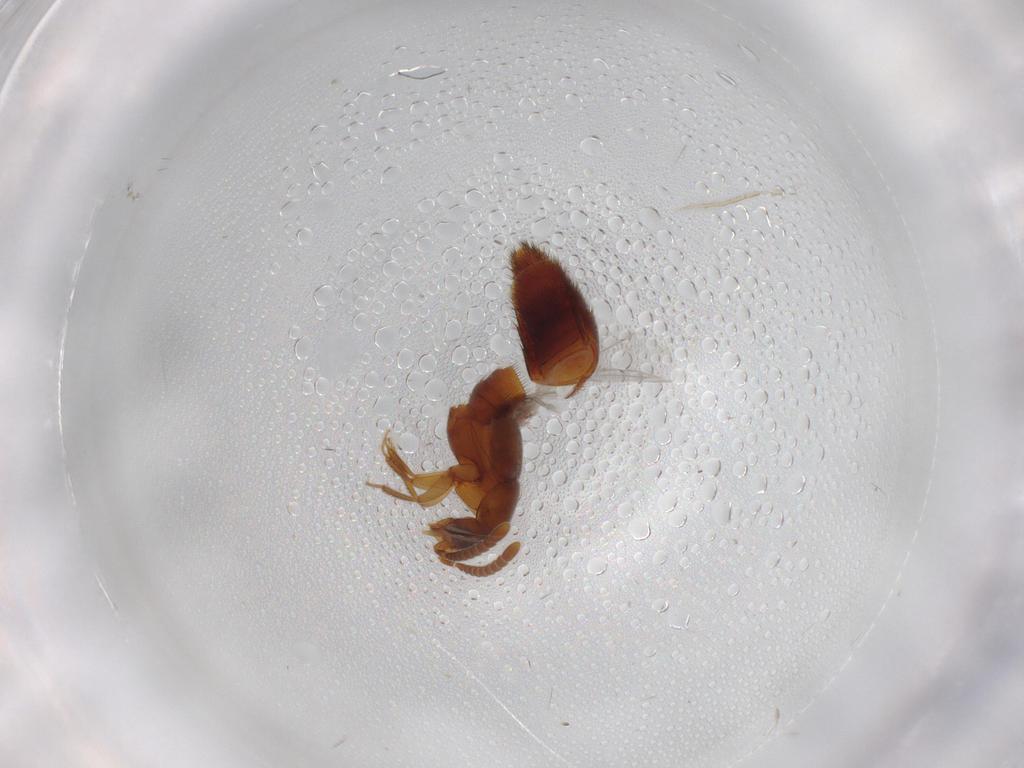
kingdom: Animalia
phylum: Arthropoda
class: Insecta
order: Coleoptera
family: Staphylinidae
